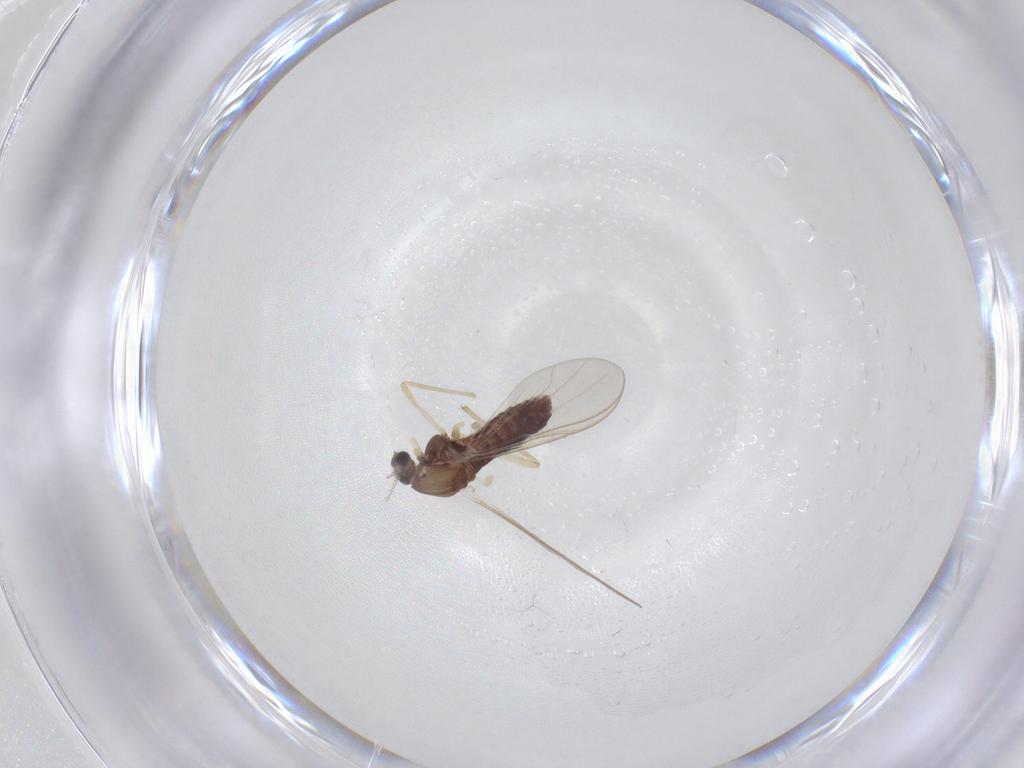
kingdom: Animalia
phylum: Arthropoda
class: Insecta
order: Diptera
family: Chironomidae
